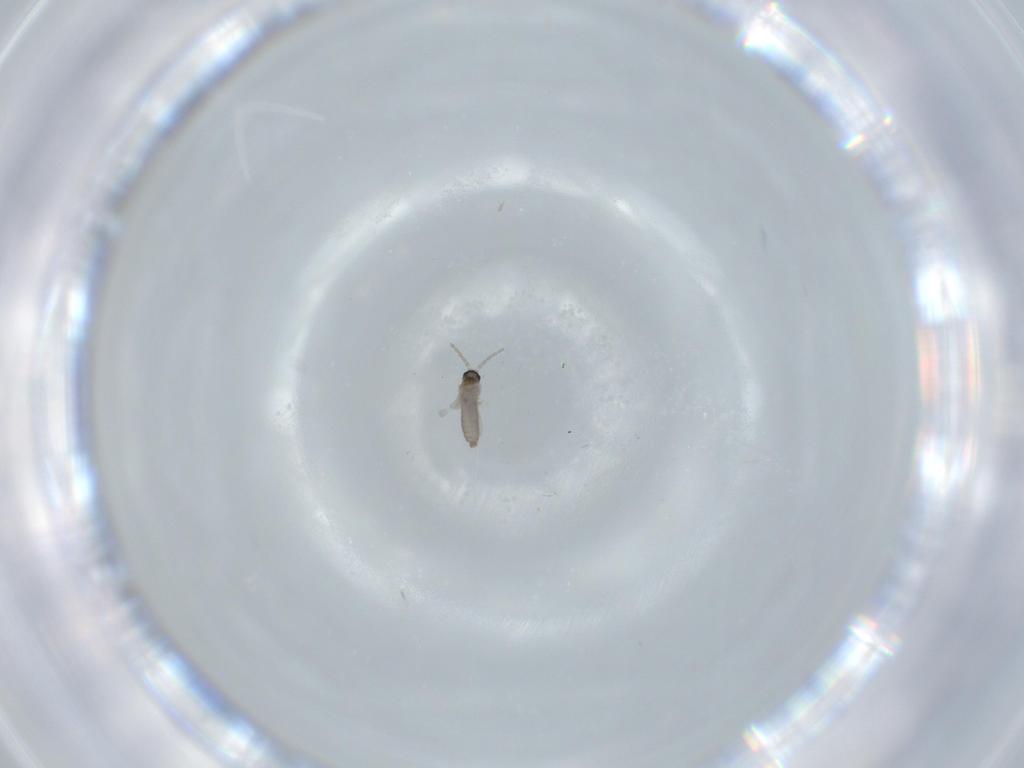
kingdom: Animalia
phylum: Arthropoda
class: Insecta
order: Diptera
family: Cecidomyiidae
